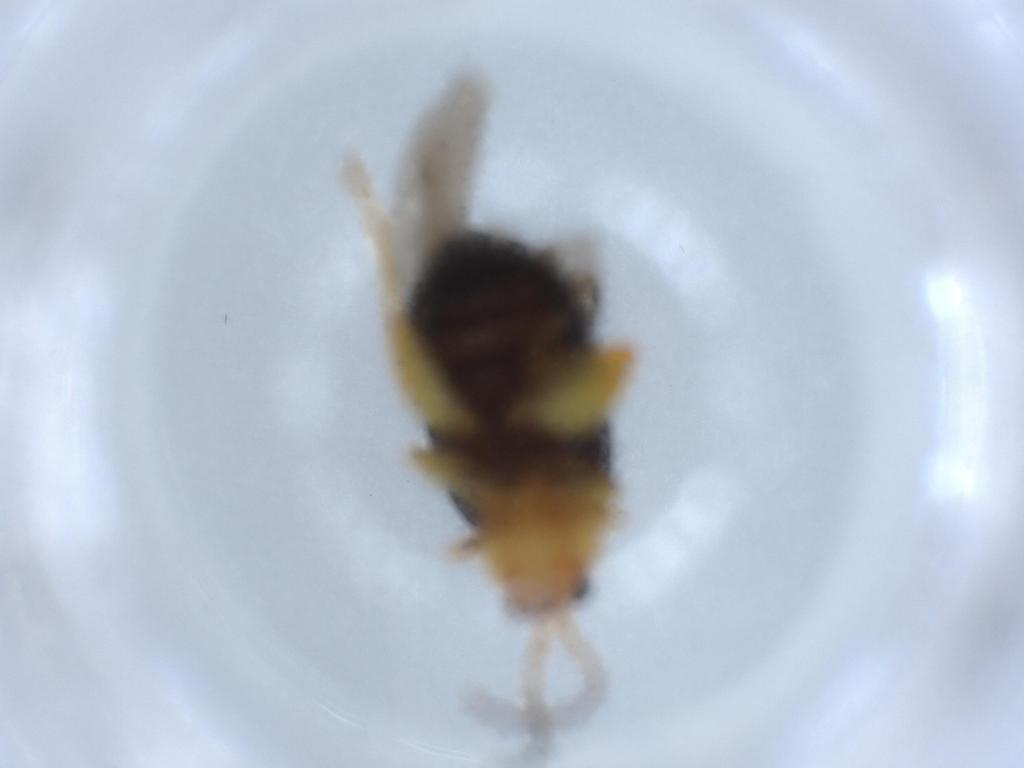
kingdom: Animalia
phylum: Arthropoda
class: Insecta
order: Coleoptera
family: Chrysomelidae
